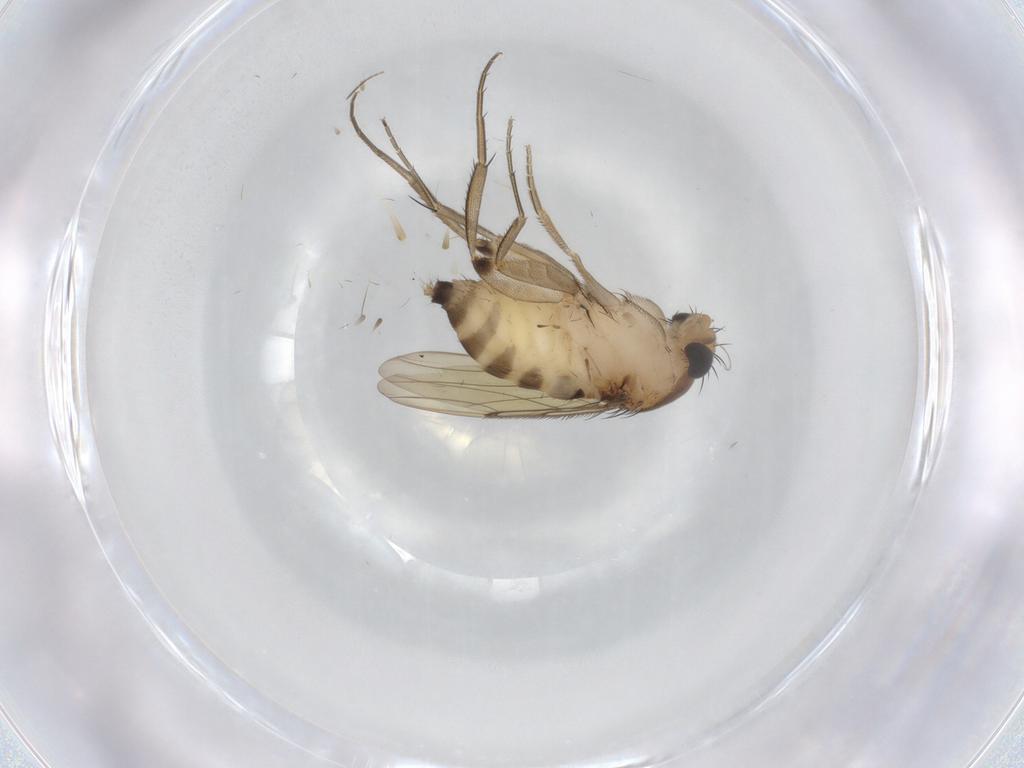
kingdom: Animalia
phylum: Arthropoda
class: Insecta
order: Diptera
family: Phoridae
